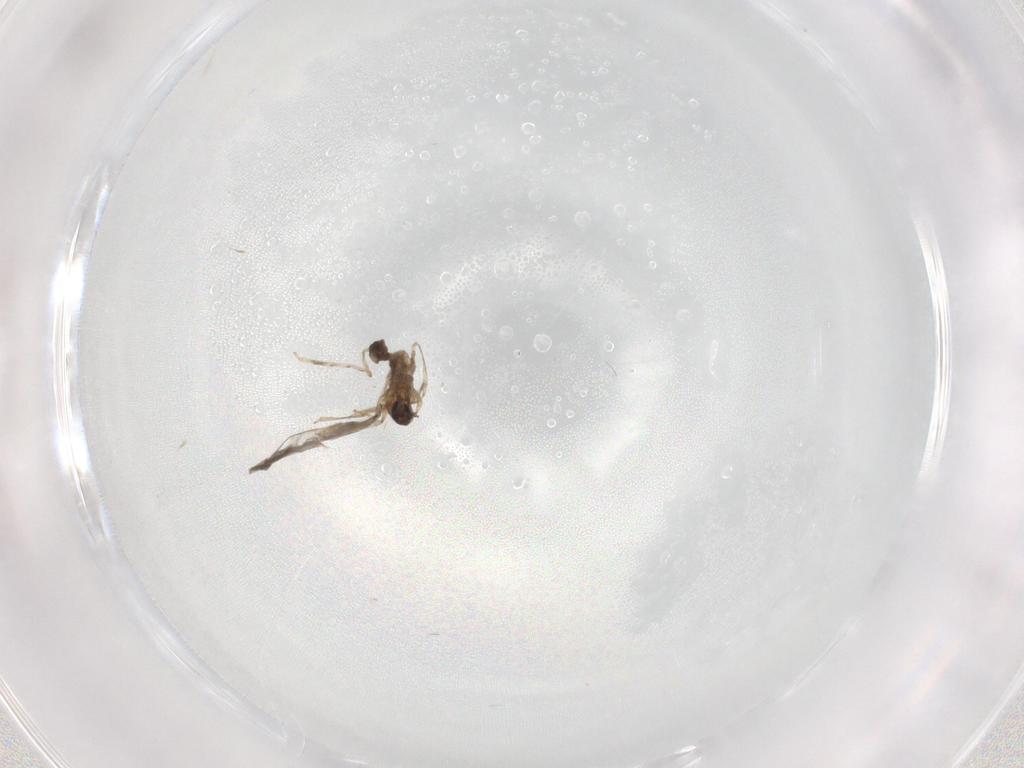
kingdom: Animalia
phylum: Arthropoda
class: Insecta
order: Diptera
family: Cecidomyiidae
